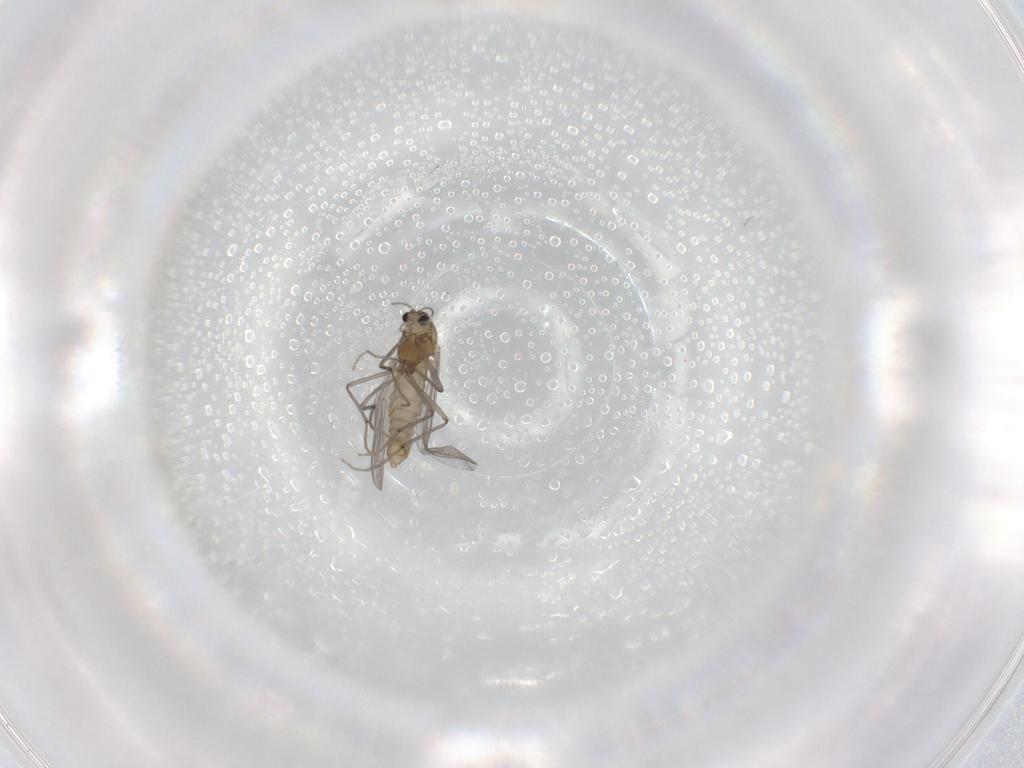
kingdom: Animalia
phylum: Arthropoda
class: Insecta
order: Diptera
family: Chironomidae
